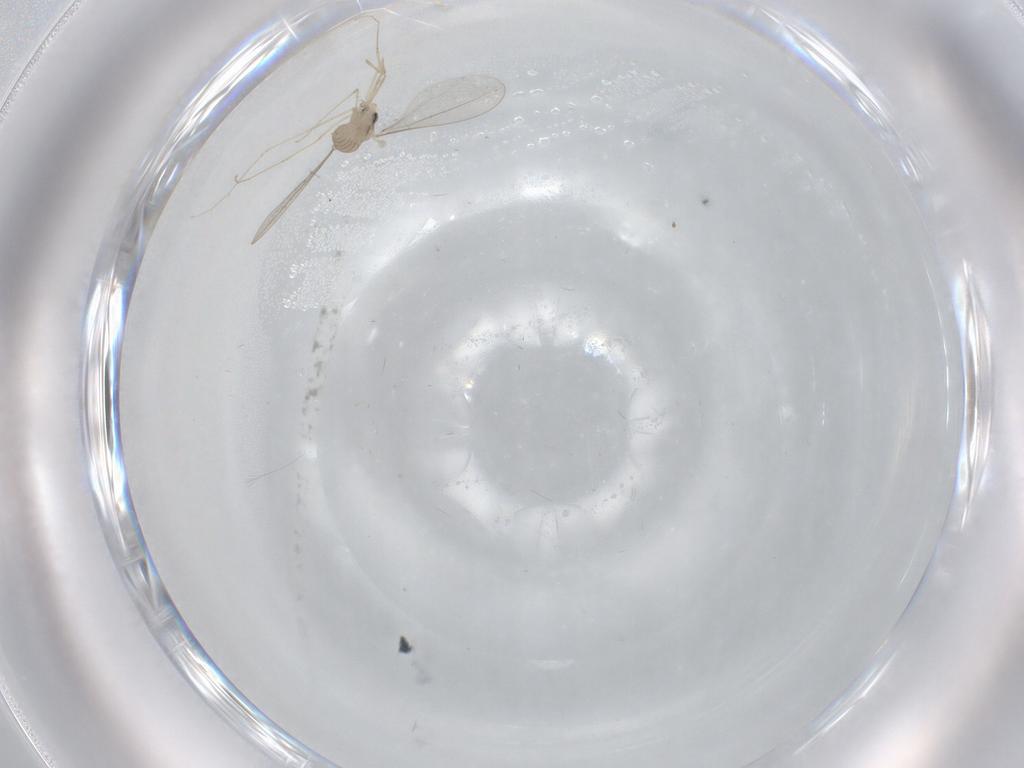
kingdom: Animalia
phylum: Arthropoda
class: Insecta
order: Diptera
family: Cecidomyiidae
